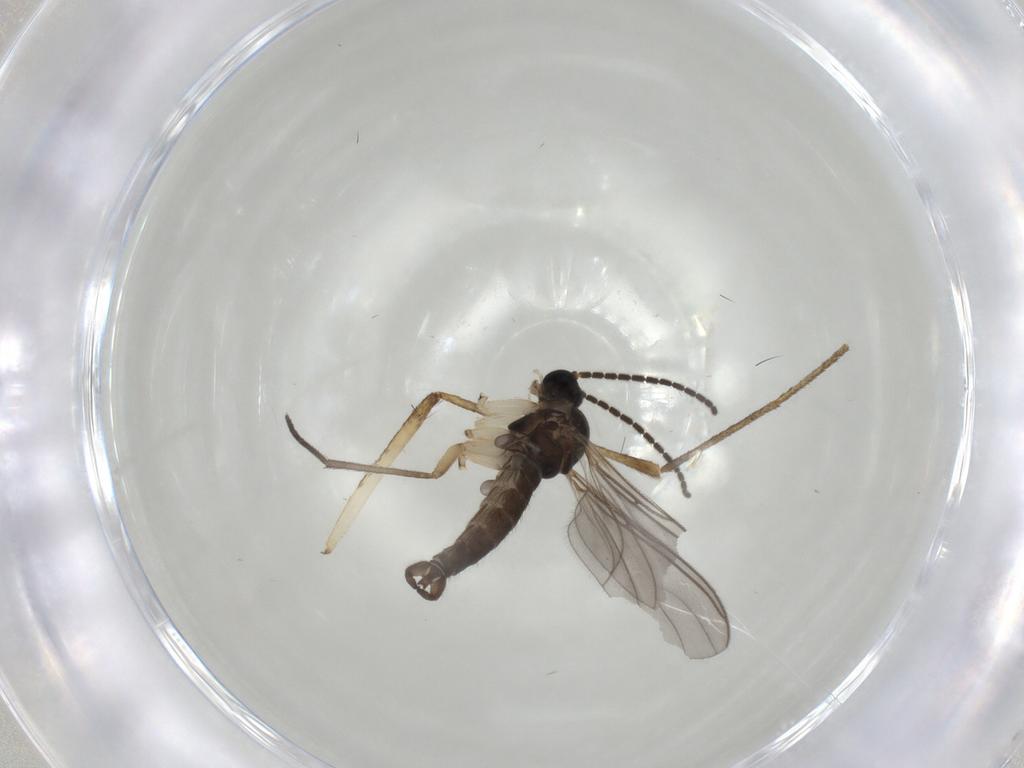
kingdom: Animalia
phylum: Arthropoda
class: Insecta
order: Diptera
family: Sciaridae
